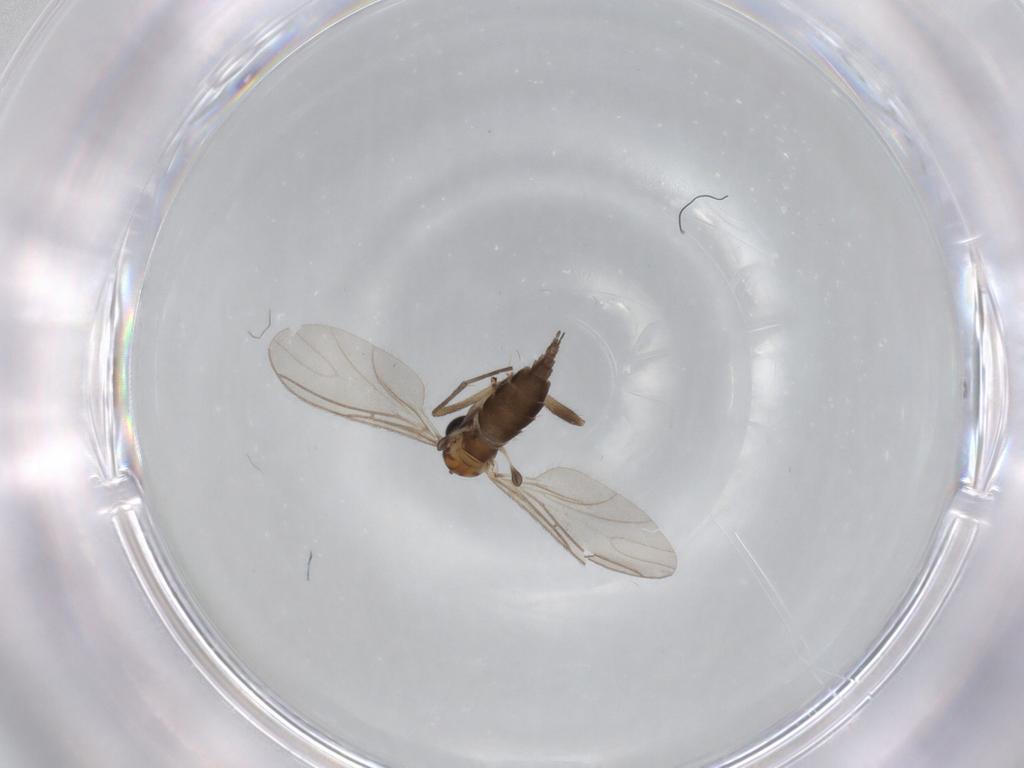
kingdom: Animalia
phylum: Arthropoda
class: Insecta
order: Diptera
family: Sciaridae
